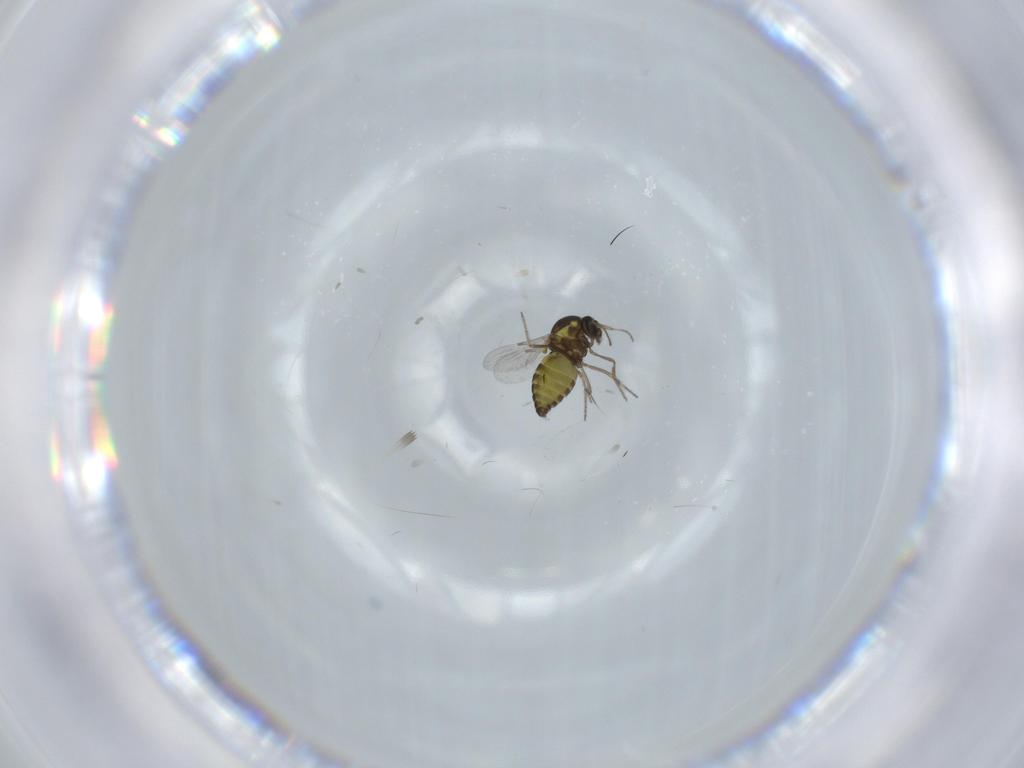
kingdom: Animalia
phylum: Arthropoda
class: Insecta
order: Diptera
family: Ceratopogonidae
